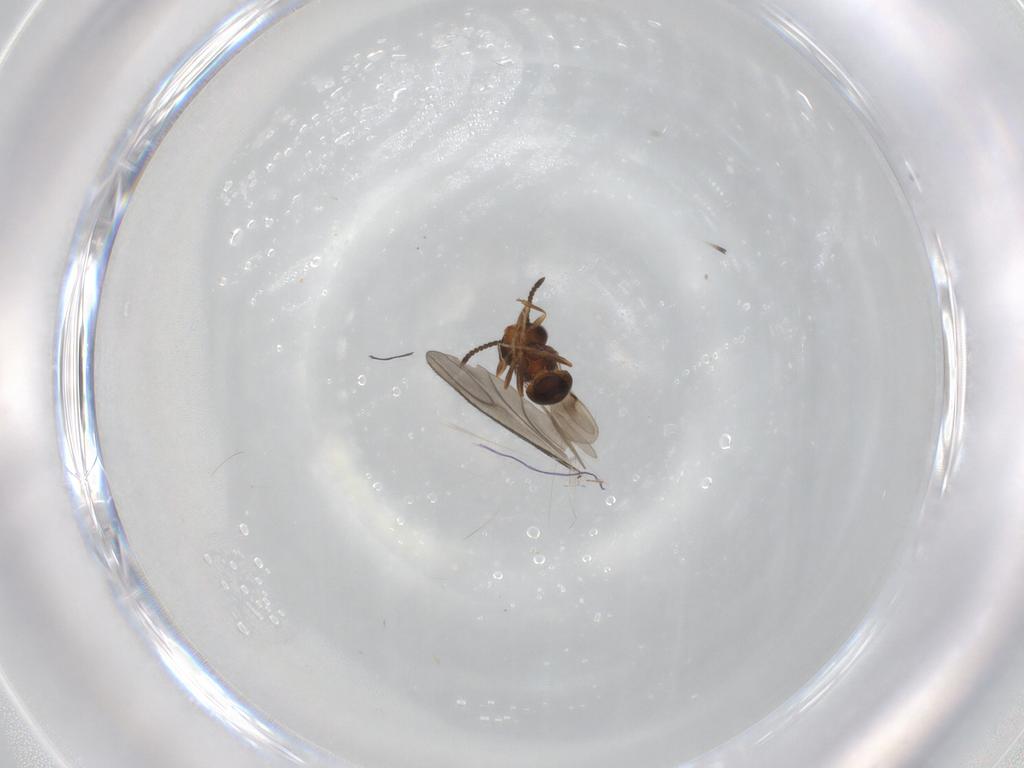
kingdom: Animalia
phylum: Arthropoda
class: Insecta
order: Hymenoptera
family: Scelionidae
